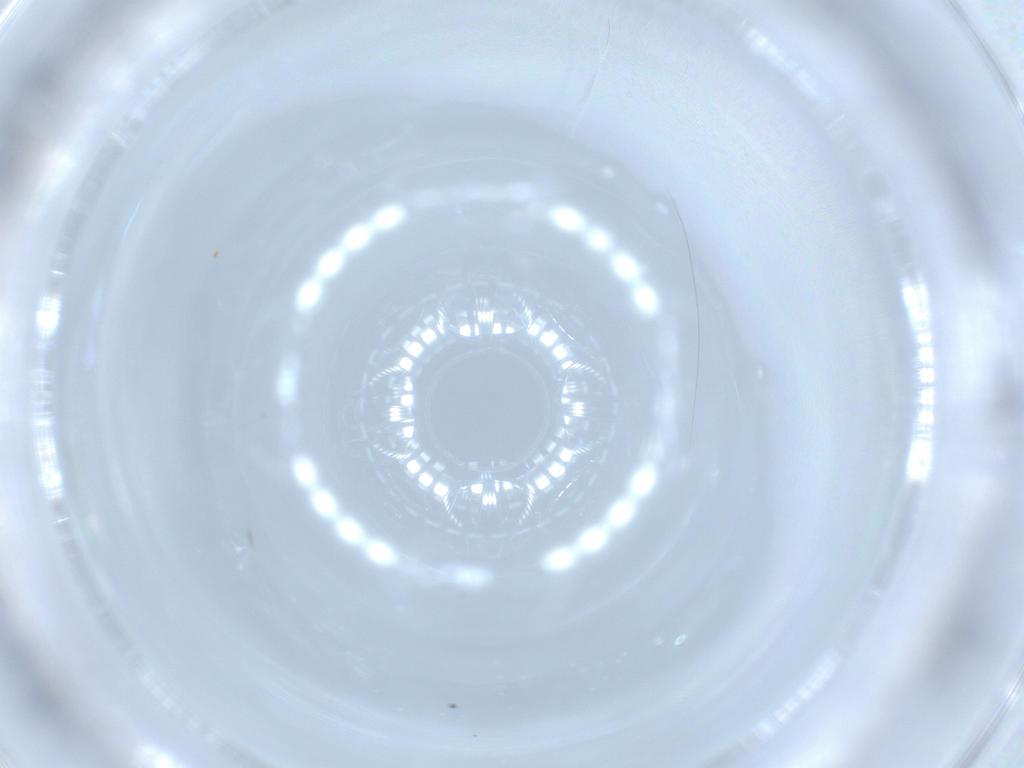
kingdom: Animalia
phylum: Arthropoda
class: Insecta
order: Diptera
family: Cecidomyiidae
